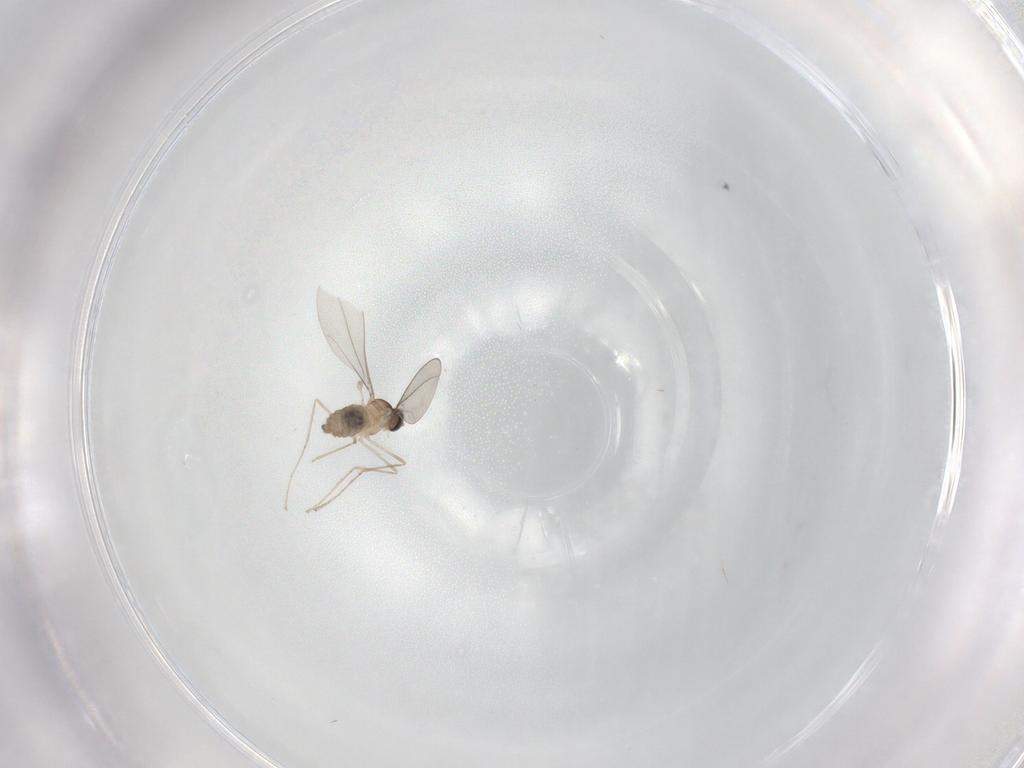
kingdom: Animalia
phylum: Arthropoda
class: Insecta
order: Diptera
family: Cecidomyiidae
